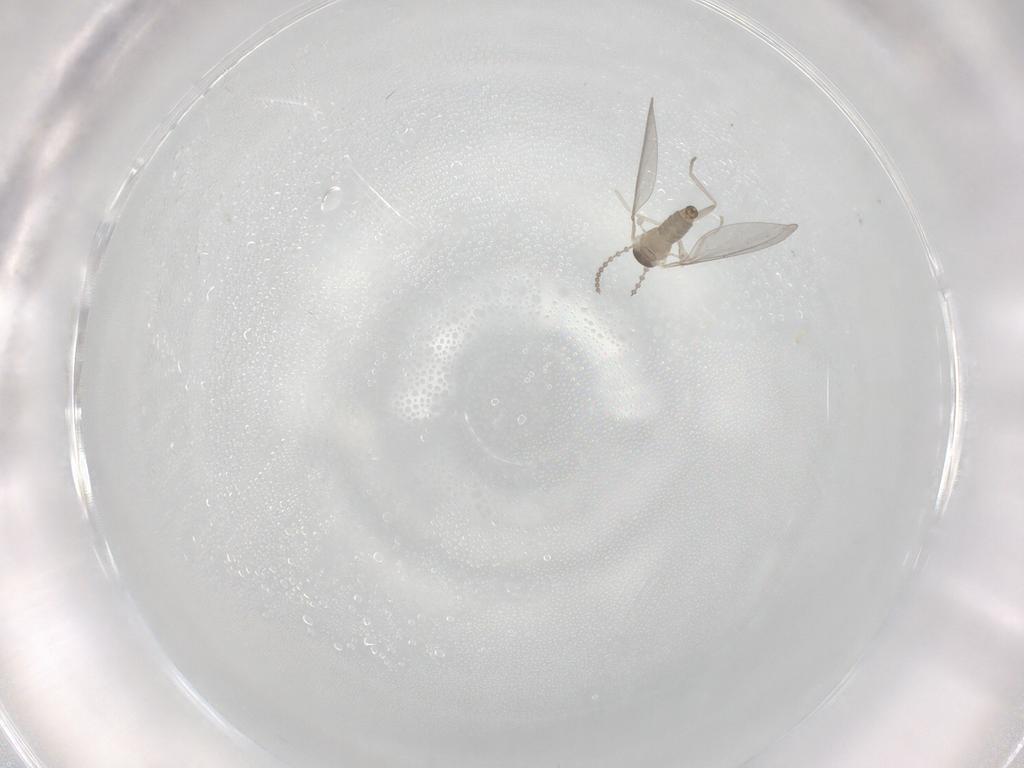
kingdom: Animalia
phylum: Arthropoda
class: Insecta
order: Diptera
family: Cecidomyiidae
